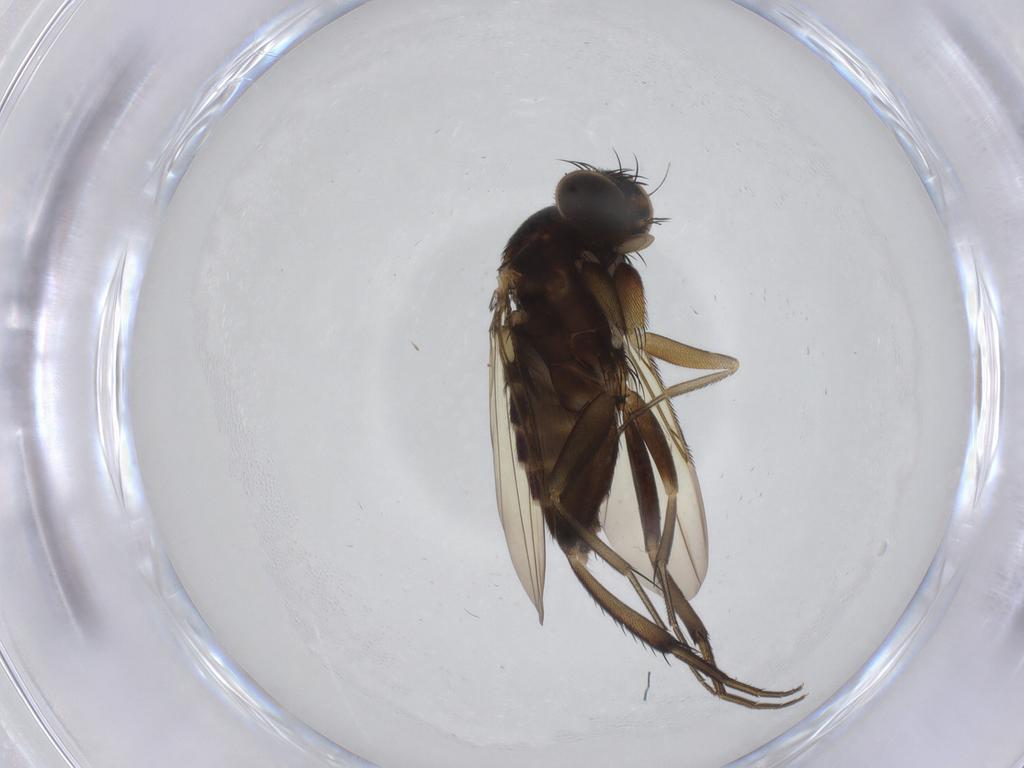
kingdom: Animalia
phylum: Arthropoda
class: Insecta
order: Diptera
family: Phoridae
